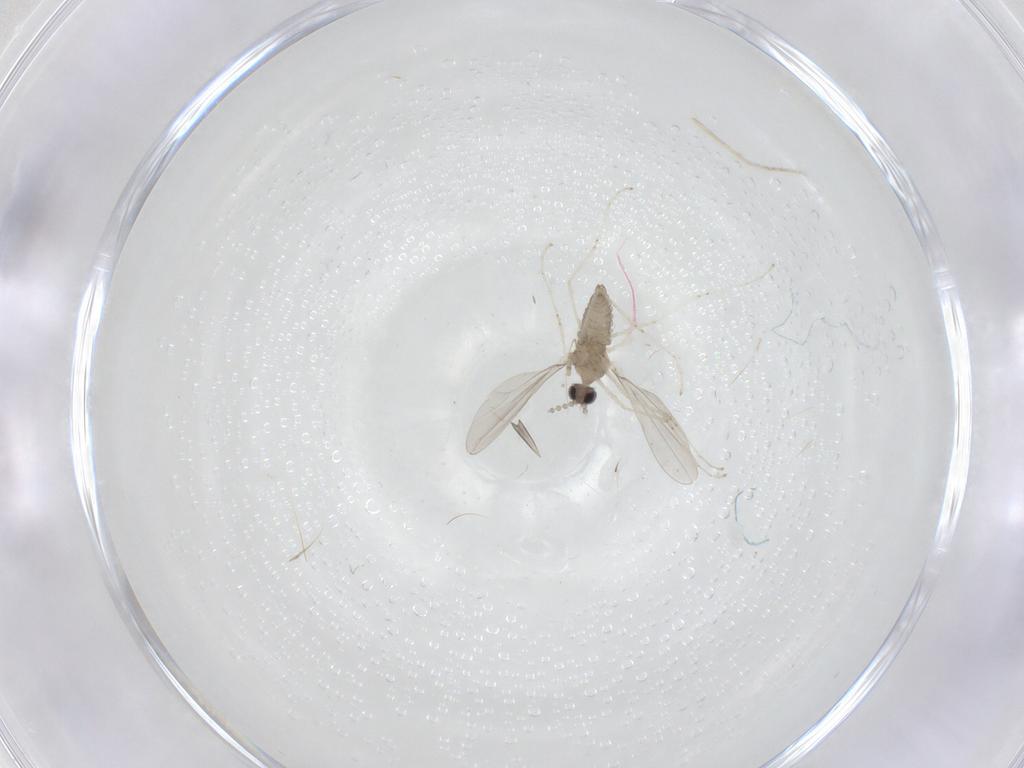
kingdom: Animalia
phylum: Arthropoda
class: Insecta
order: Diptera
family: Cecidomyiidae
